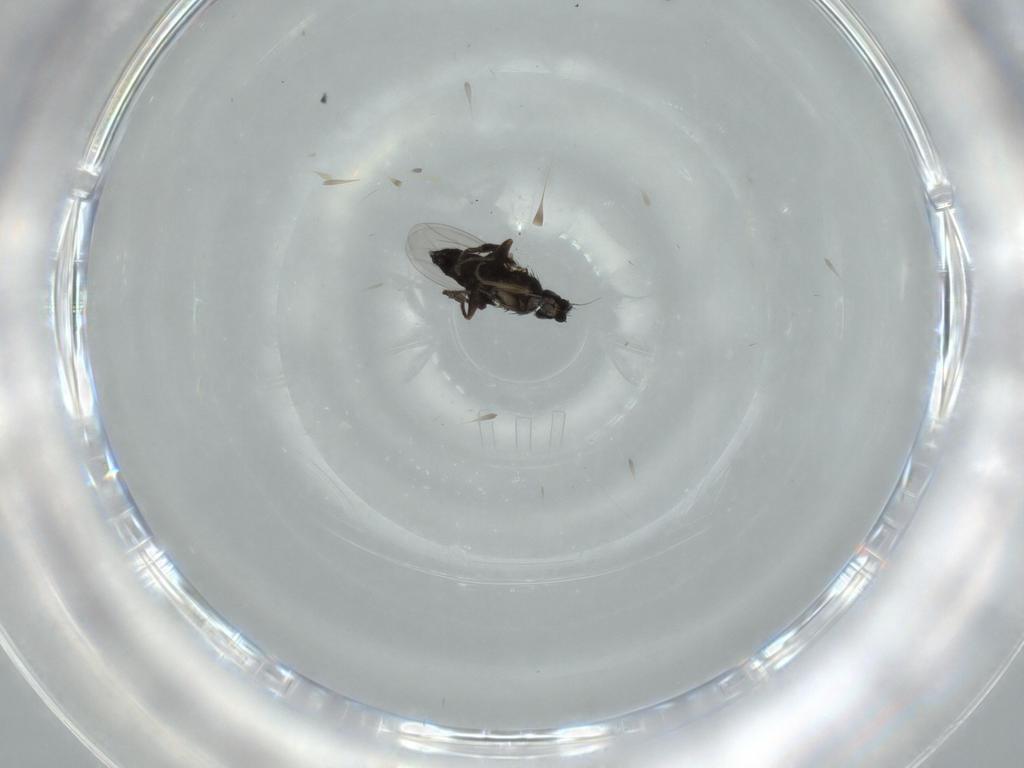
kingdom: Animalia
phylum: Arthropoda
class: Insecta
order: Diptera
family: Phoridae
